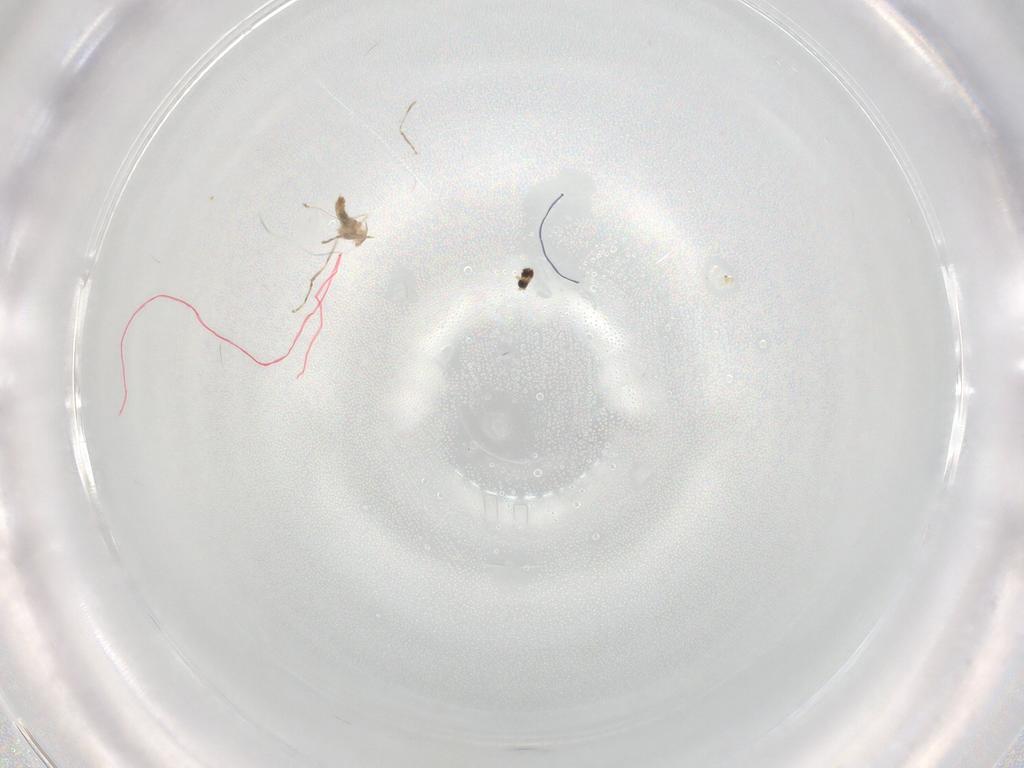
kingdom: Animalia
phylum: Arthropoda
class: Insecta
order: Diptera
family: Cecidomyiidae
